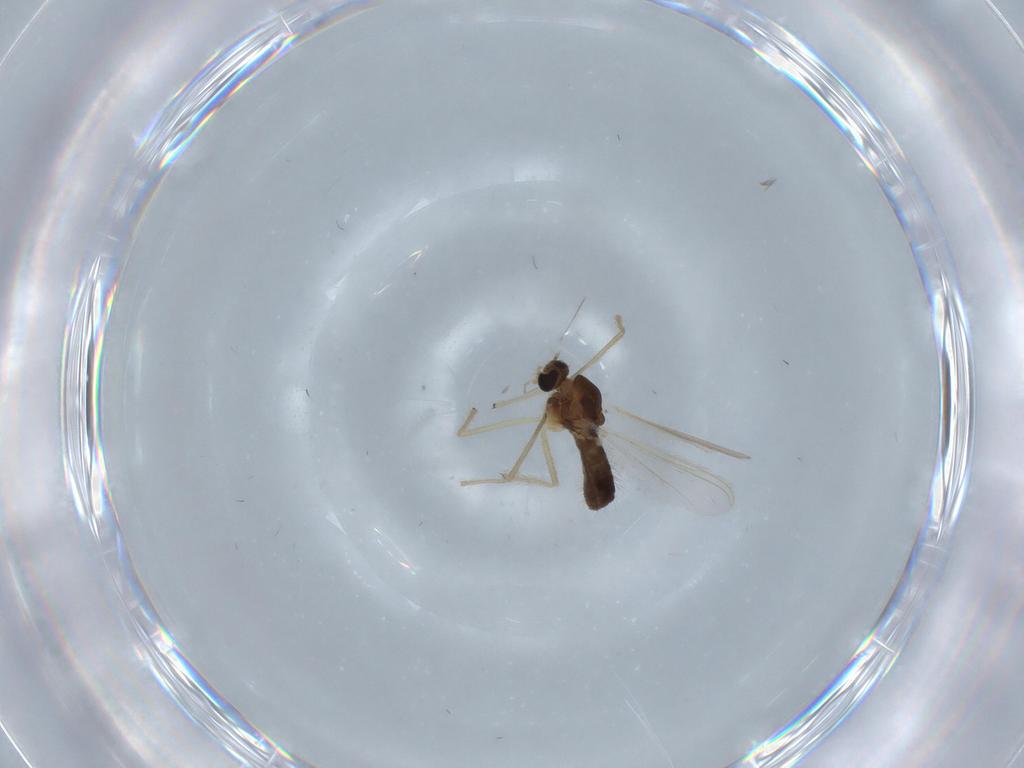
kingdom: Animalia
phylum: Arthropoda
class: Insecta
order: Diptera
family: Chironomidae
